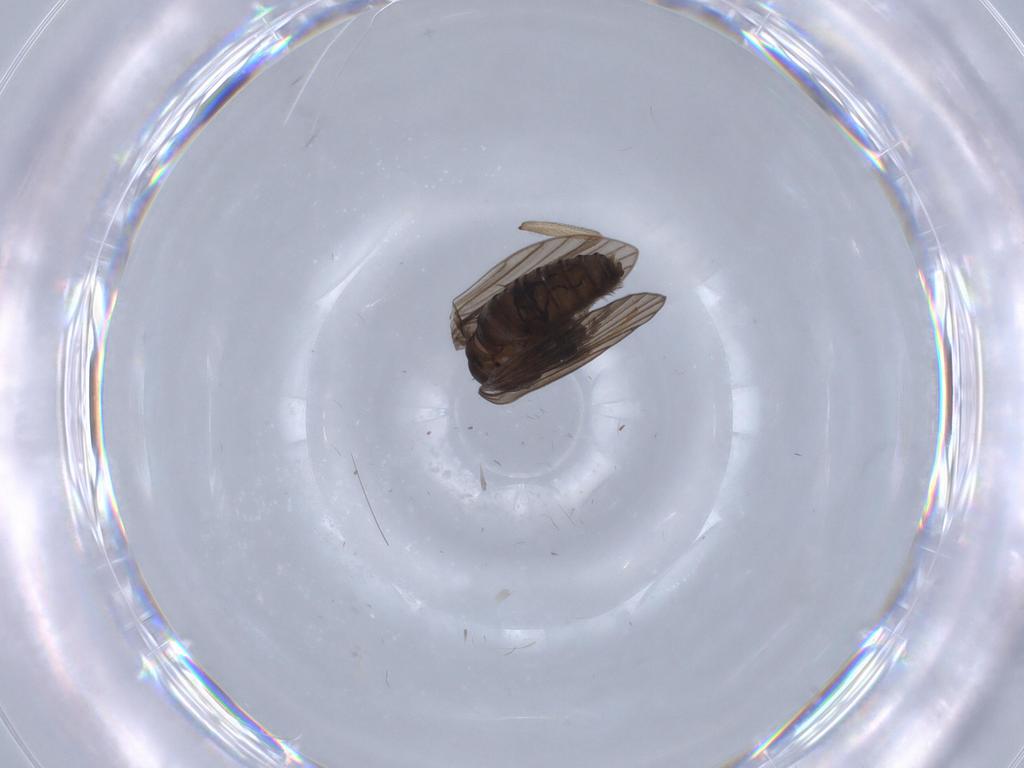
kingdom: Animalia
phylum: Arthropoda
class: Insecta
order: Diptera
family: Psychodidae
